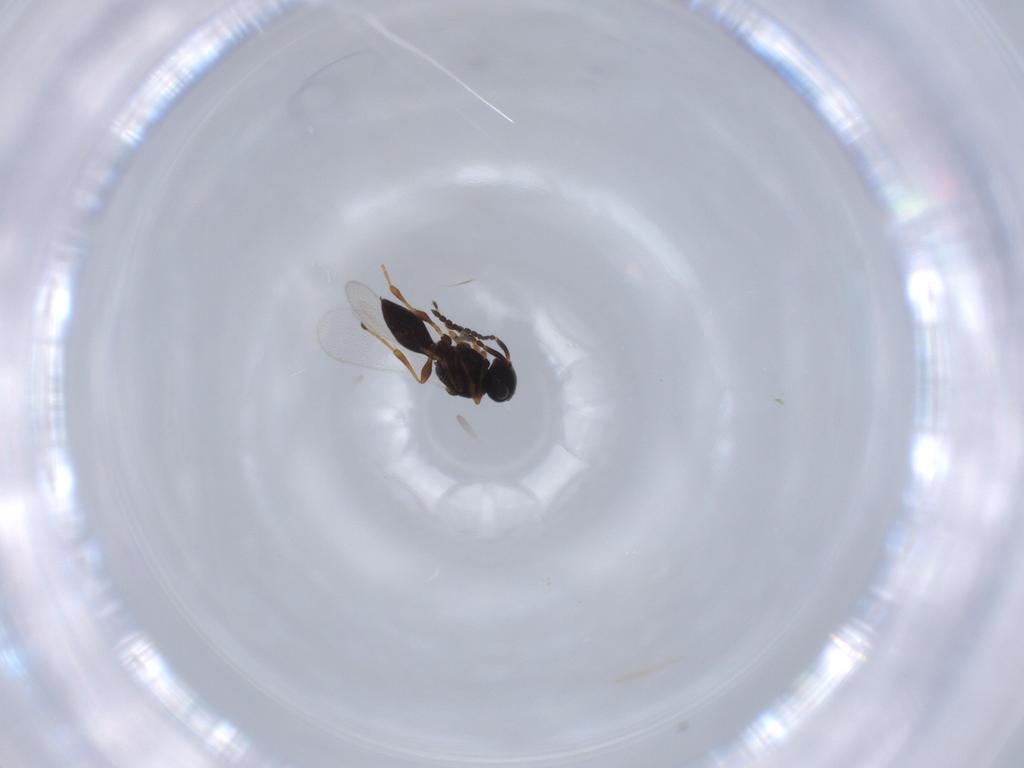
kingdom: Animalia
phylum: Arthropoda
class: Insecta
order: Hymenoptera
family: Platygastridae
